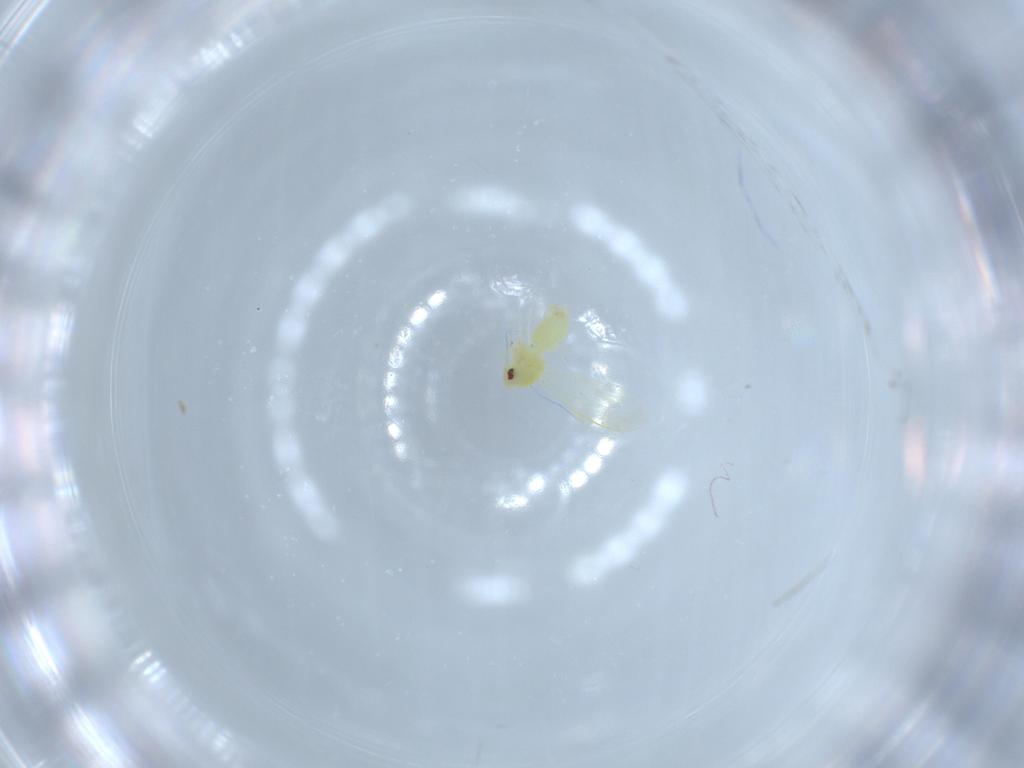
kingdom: Animalia
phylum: Arthropoda
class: Insecta
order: Hemiptera
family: Aleyrodidae
